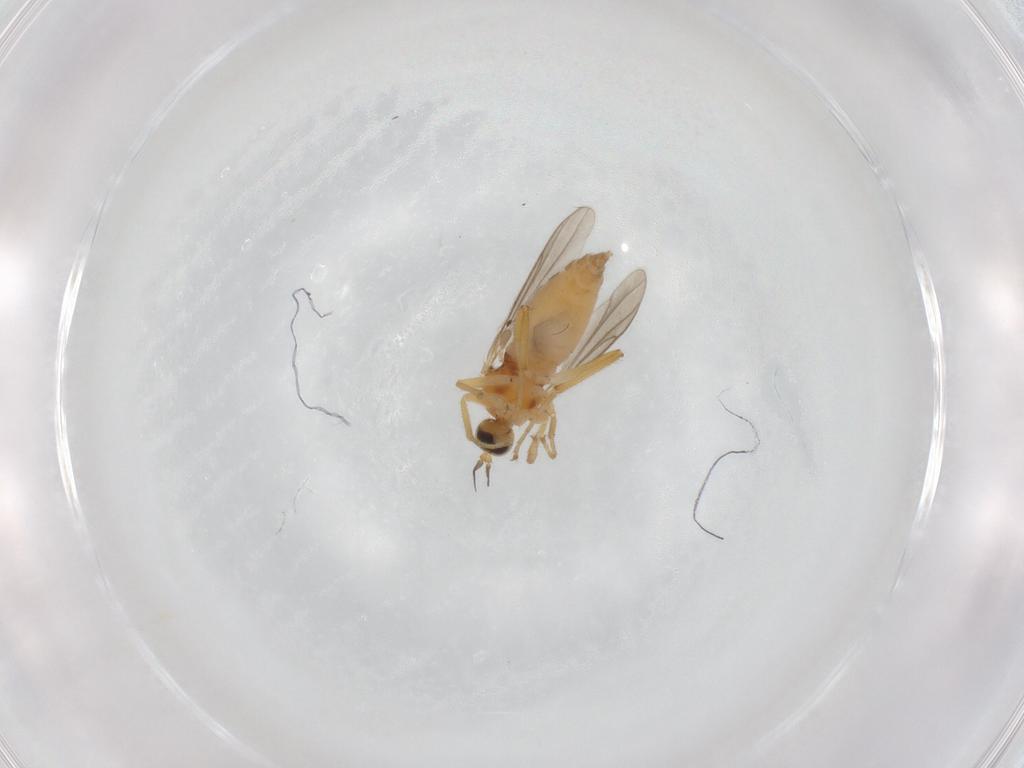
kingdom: Animalia
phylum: Arthropoda
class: Insecta
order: Diptera
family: Hybotidae
